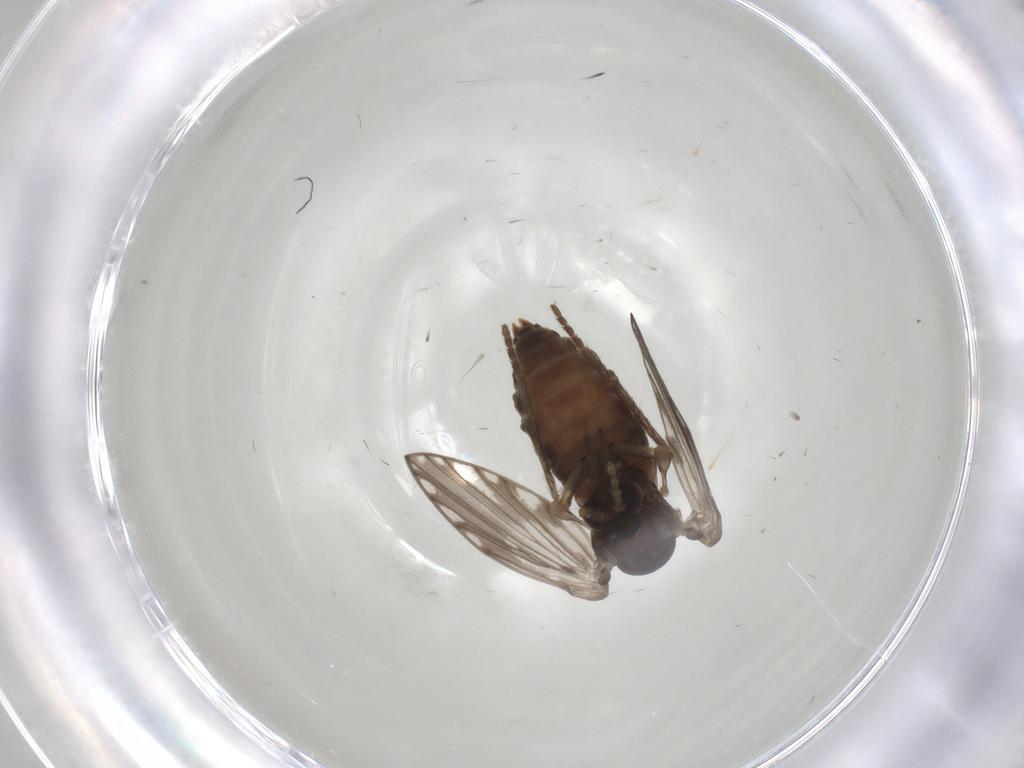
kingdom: Animalia
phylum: Arthropoda
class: Insecta
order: Diptera
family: Psychodidae
